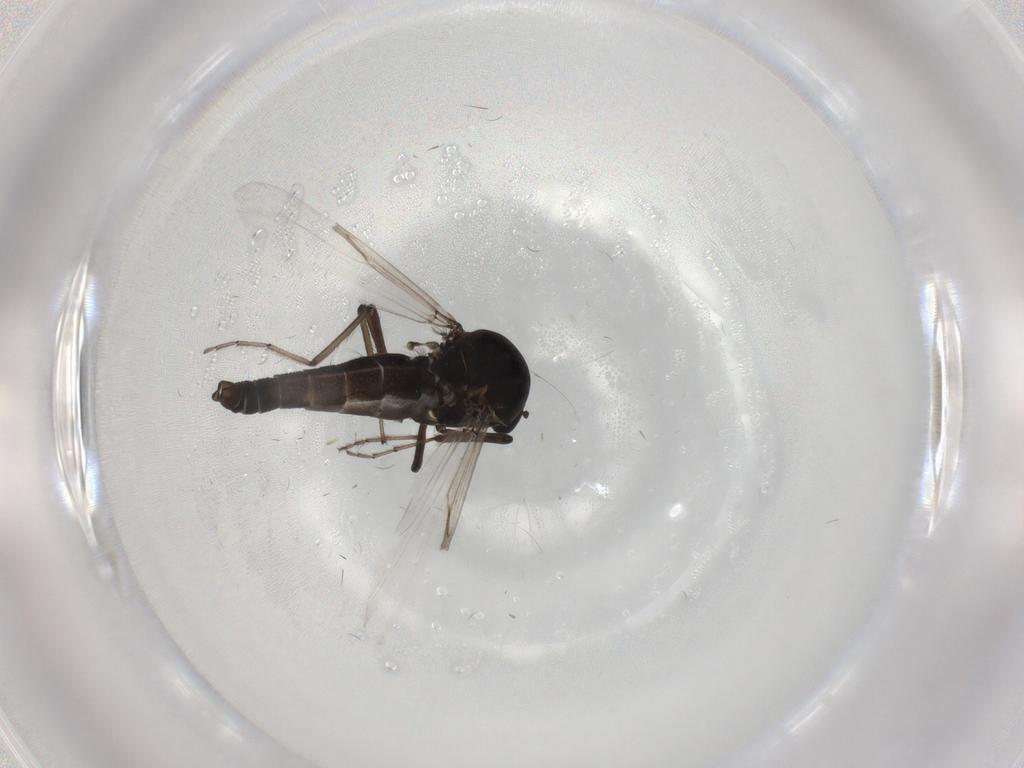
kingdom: Animalia
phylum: Arthropoda
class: Insecta
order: Diptera
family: Ceratopogonidae
